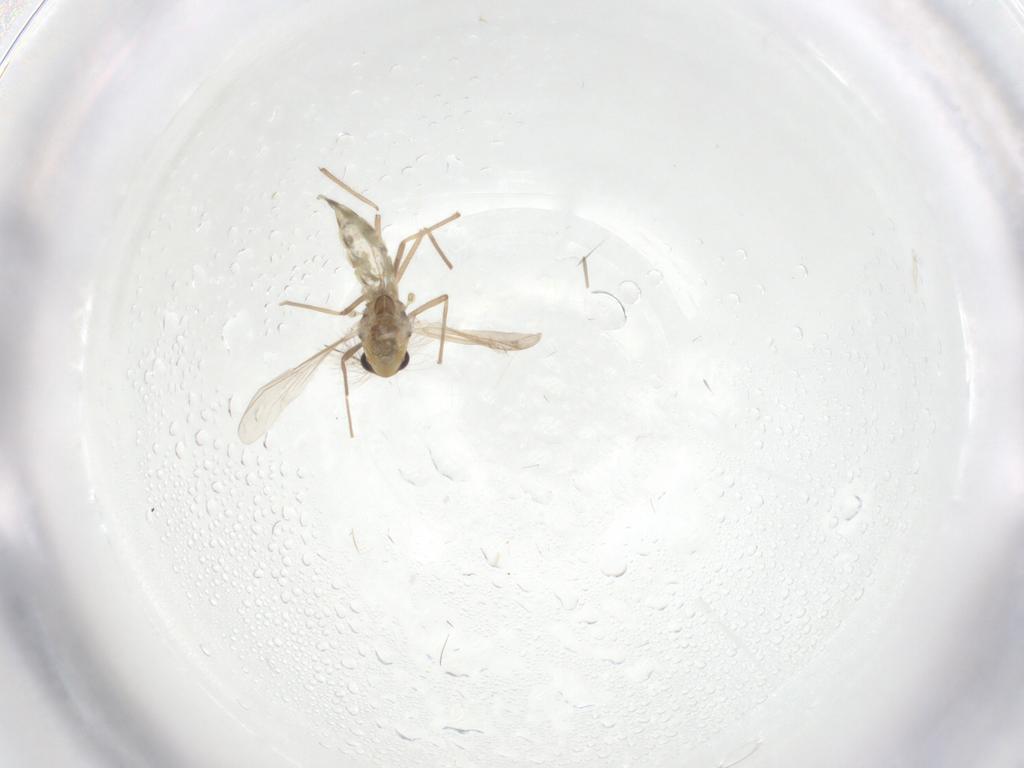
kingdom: Animalia
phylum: Arthropoda
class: Insecta
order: Diptera
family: Chironomidae
